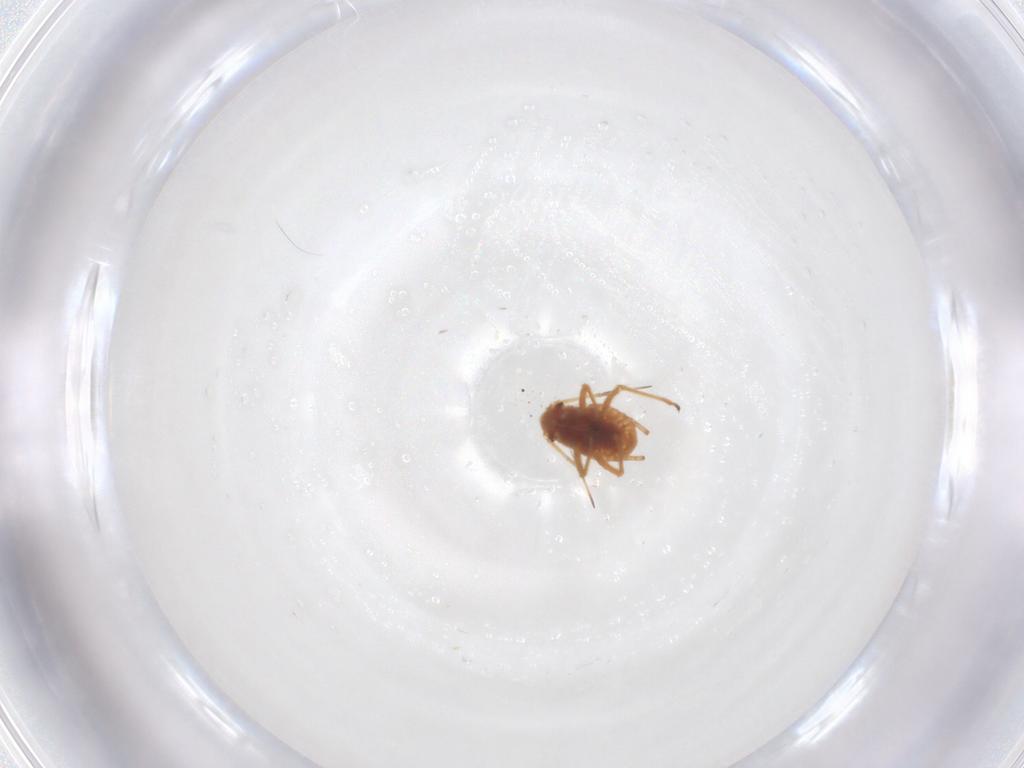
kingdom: Animalia
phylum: Arthropoda
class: Insecta
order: Hemiptera
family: Aphididae
